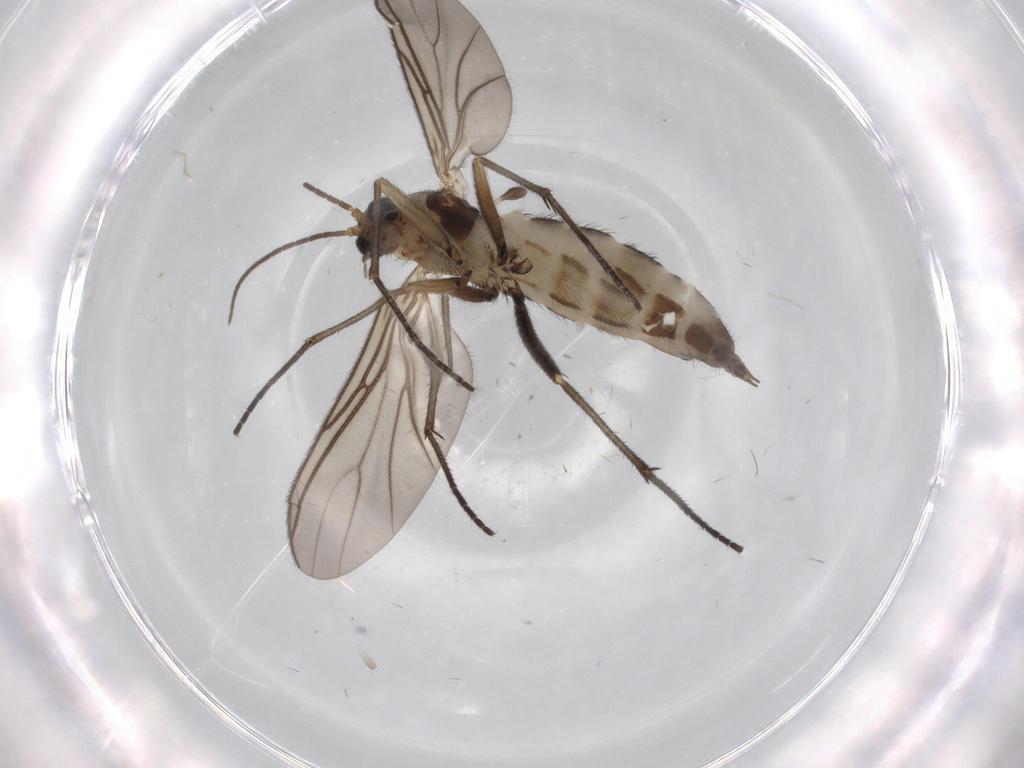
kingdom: Animalia
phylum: Arthropoda
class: Insecta
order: Diptera
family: Sciaridae
